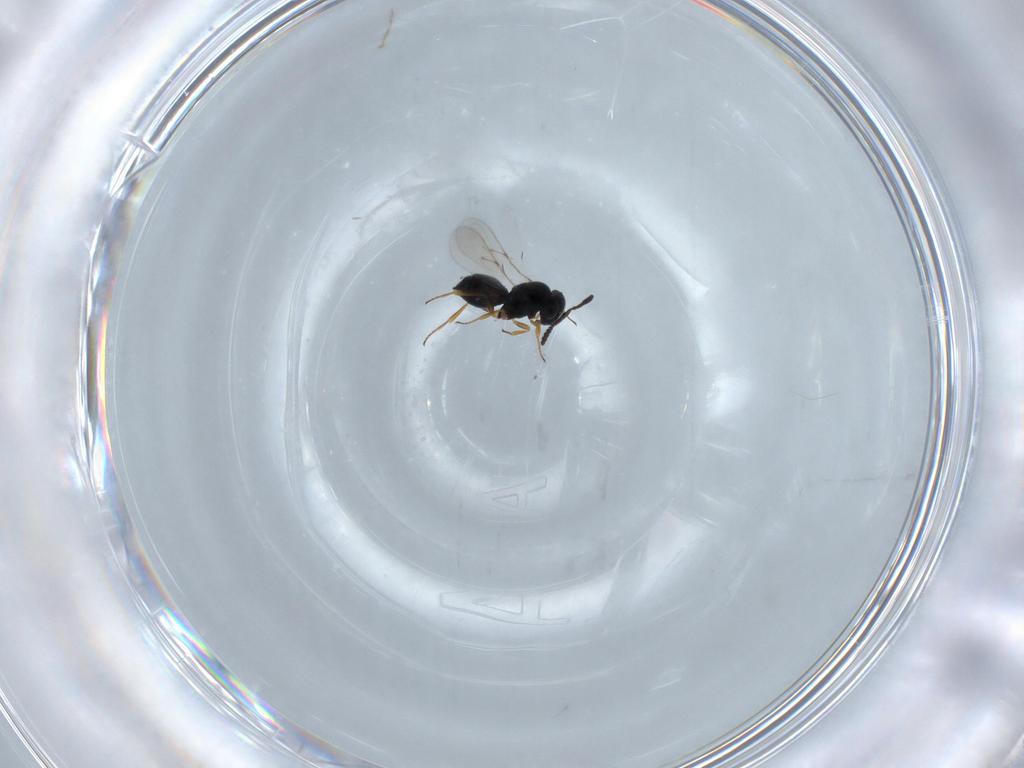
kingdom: Animalia
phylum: Arthropoda
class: Insecta
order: Hymenoptera
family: Scelionidae
